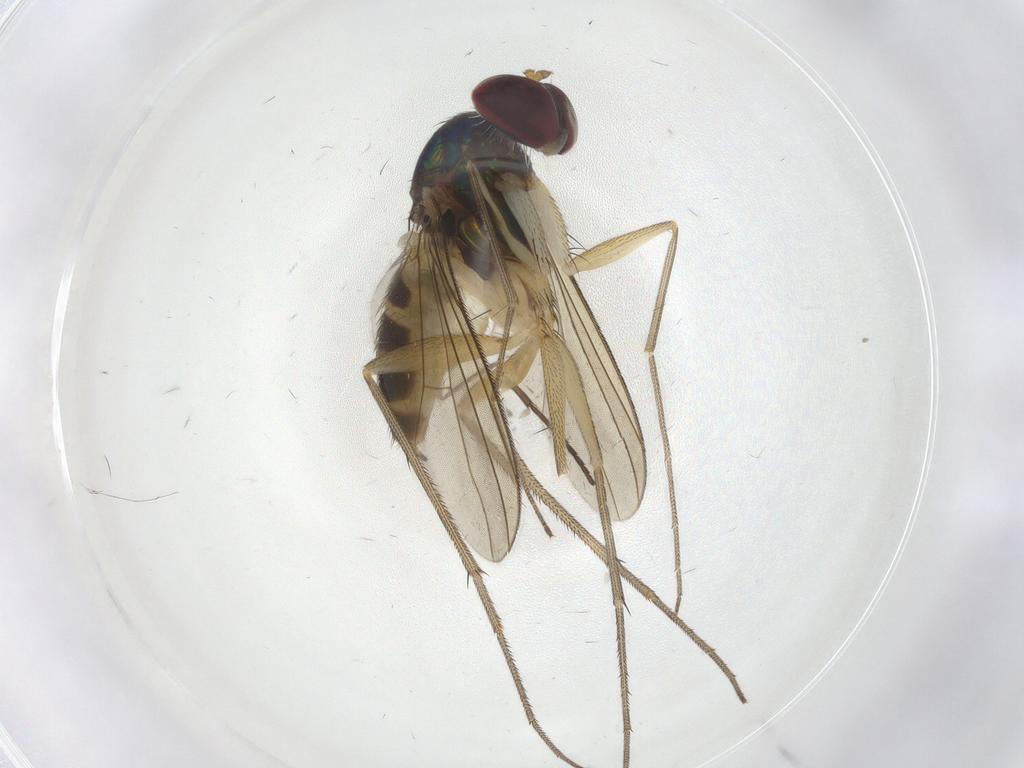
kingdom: Animalia
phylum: Arthropoda
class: Insecta
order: Diptera
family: Dolichopodidae
